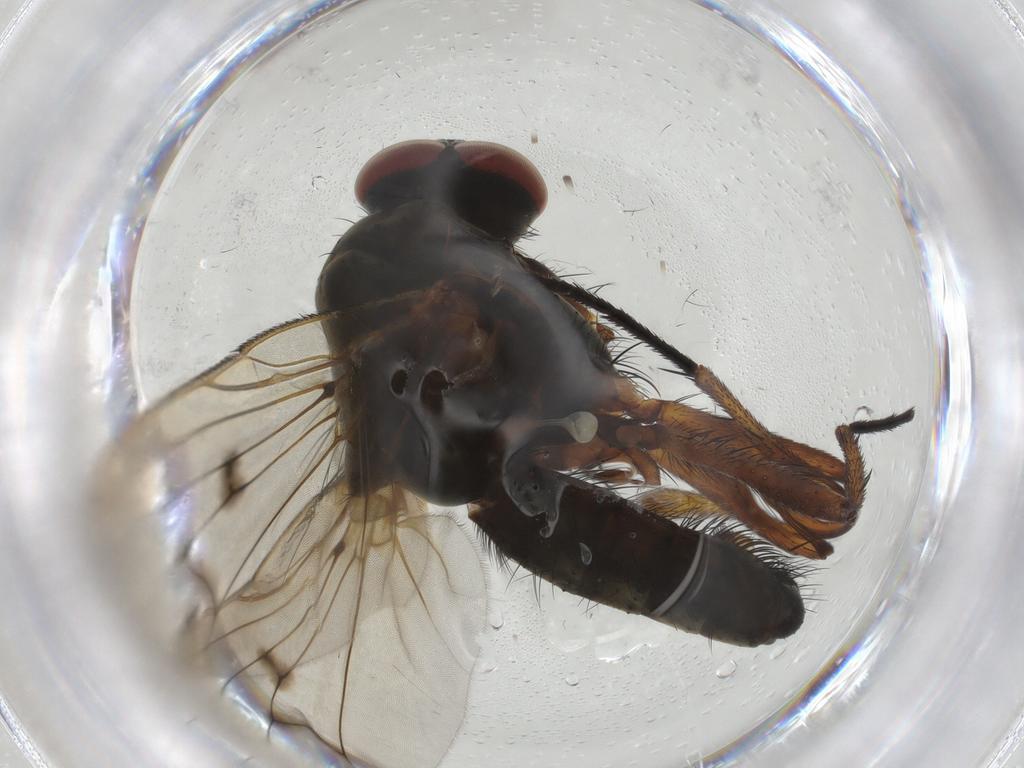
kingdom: Animalia
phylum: Arthropoda
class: Insecta
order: Diptera
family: Anthomyiidae
